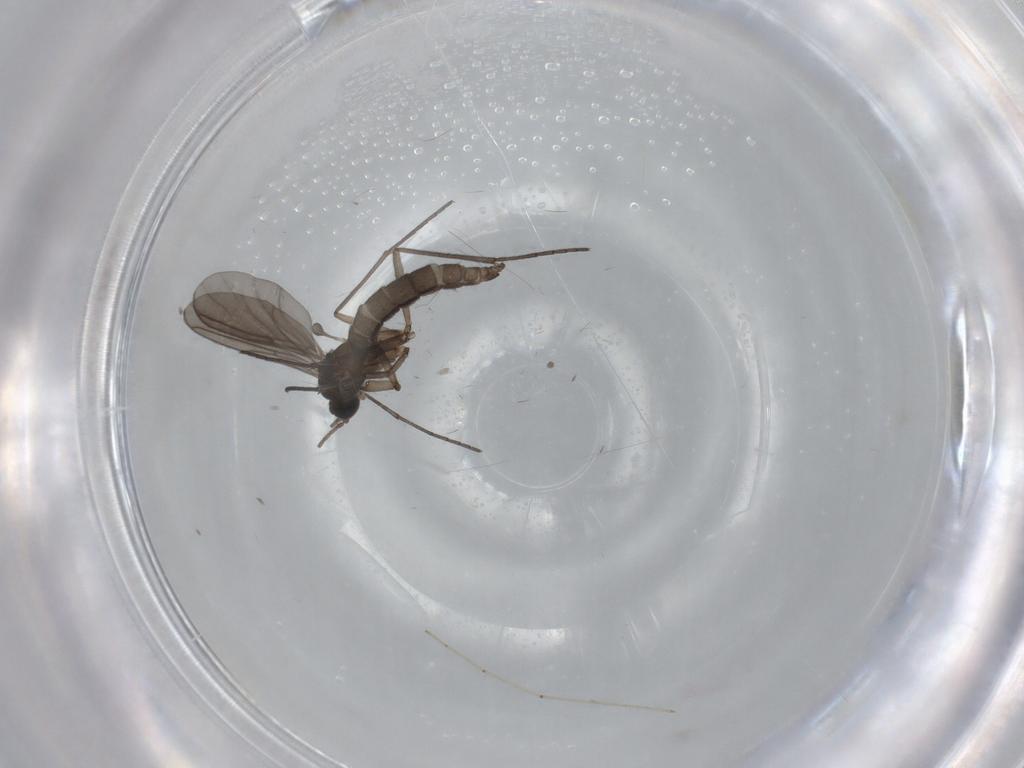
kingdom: Animalia
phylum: Arthropoda
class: Insecta
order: Diptera
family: Sciaridae
